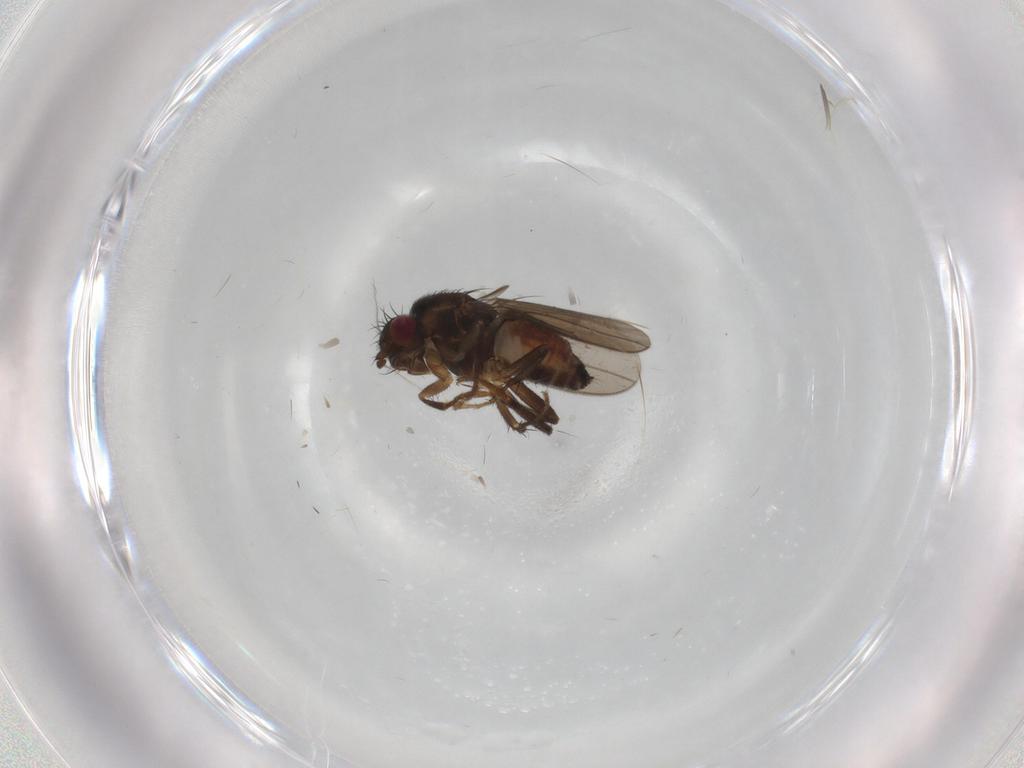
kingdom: Animalia
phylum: Arthropoda
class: Insecta
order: Diptera
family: Sphaeroceridae
